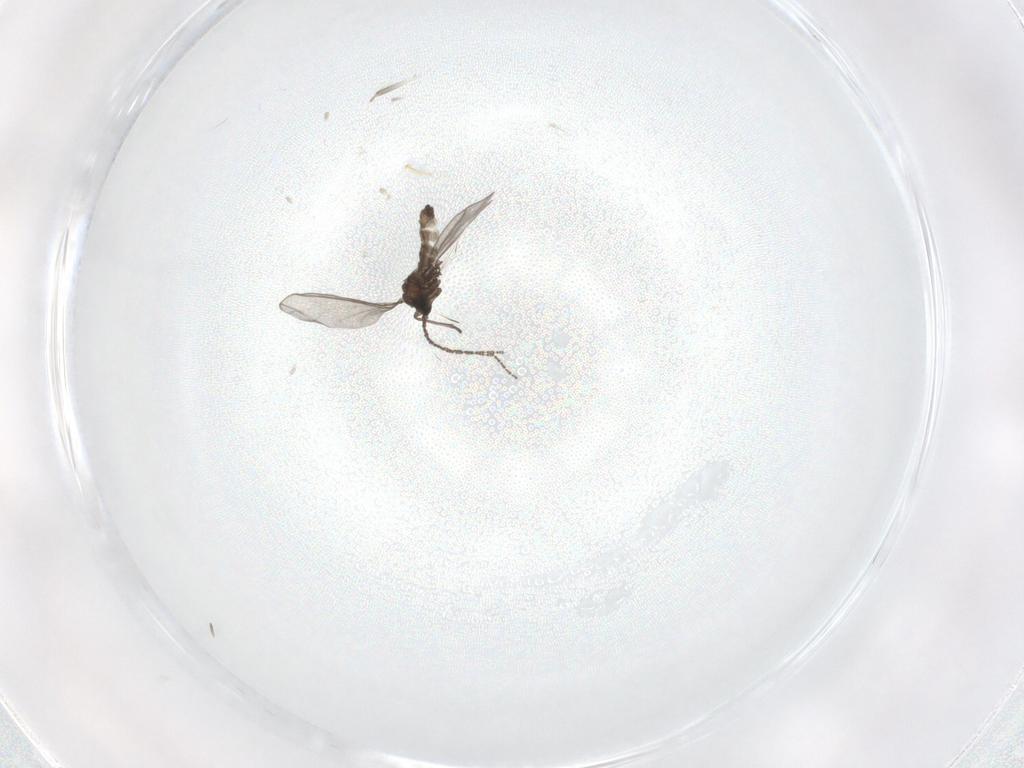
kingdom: Animalia
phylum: Arthropoda
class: Insecta
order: Diptera
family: Sciaridae
